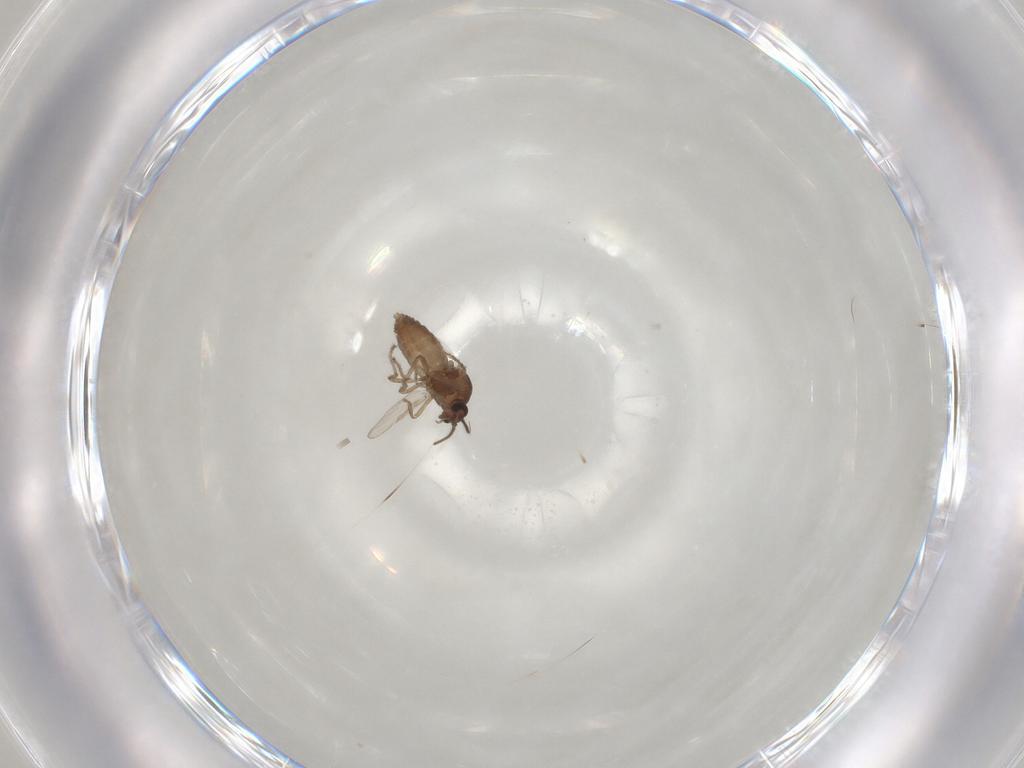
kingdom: Animalia
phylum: Arthropoda
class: Insecta
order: Diptera
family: Ceratopogonidae
